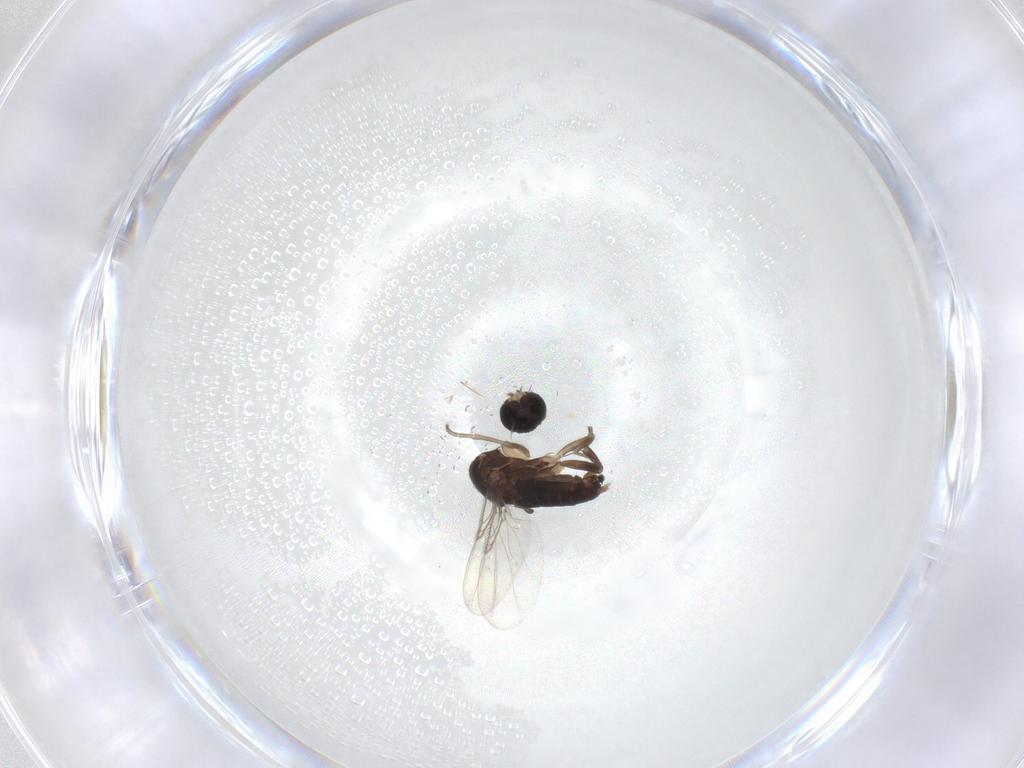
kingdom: Animalia
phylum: Arthropoda
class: Insecta
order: Diptera
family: Phoridae
